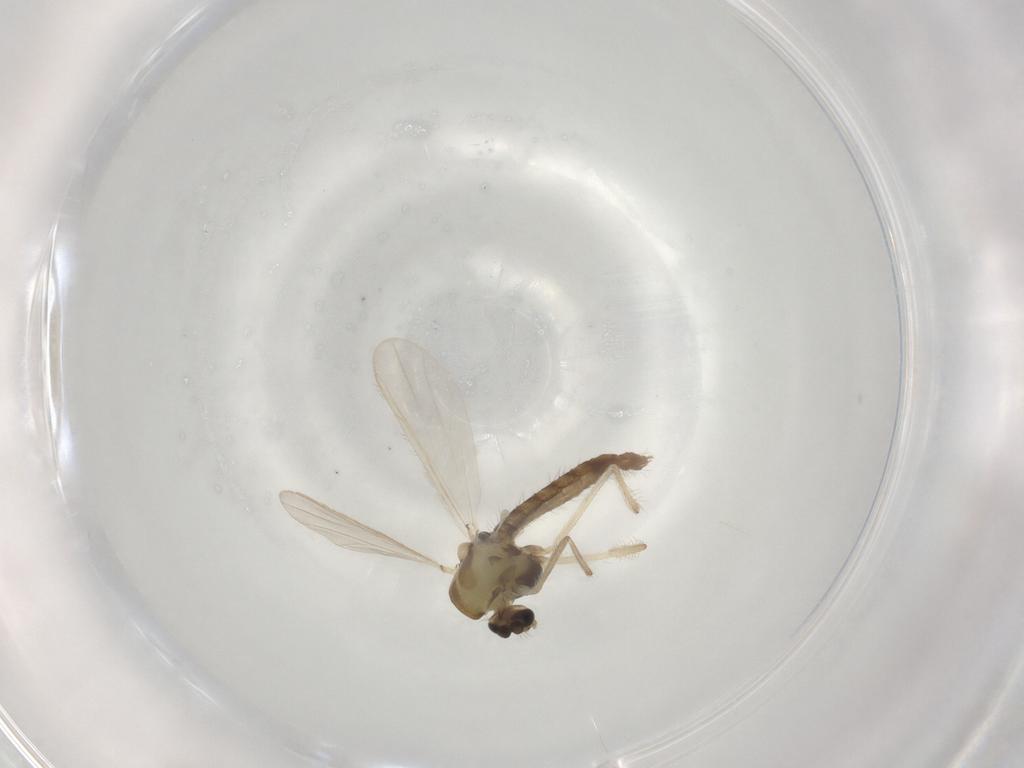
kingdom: Animalia
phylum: Arthropoda
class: Insecta
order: Diptera
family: Chironomidae
